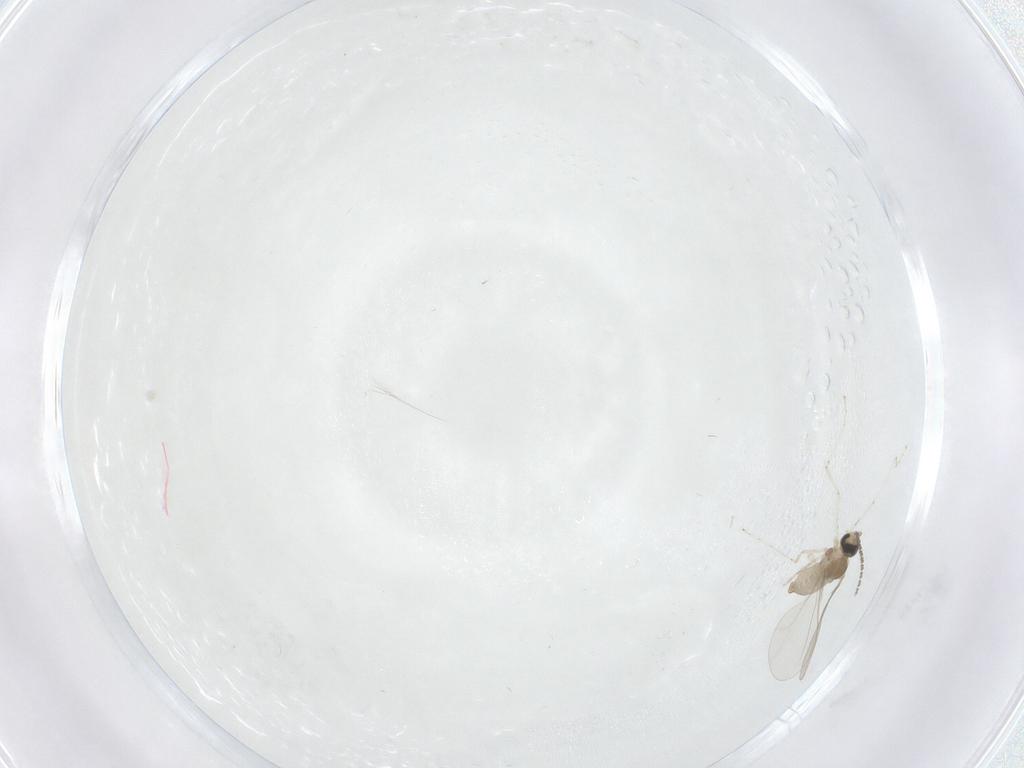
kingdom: Animalia
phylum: Arthropoda
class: Insecta
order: Diptera
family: Cecidomyiidae
